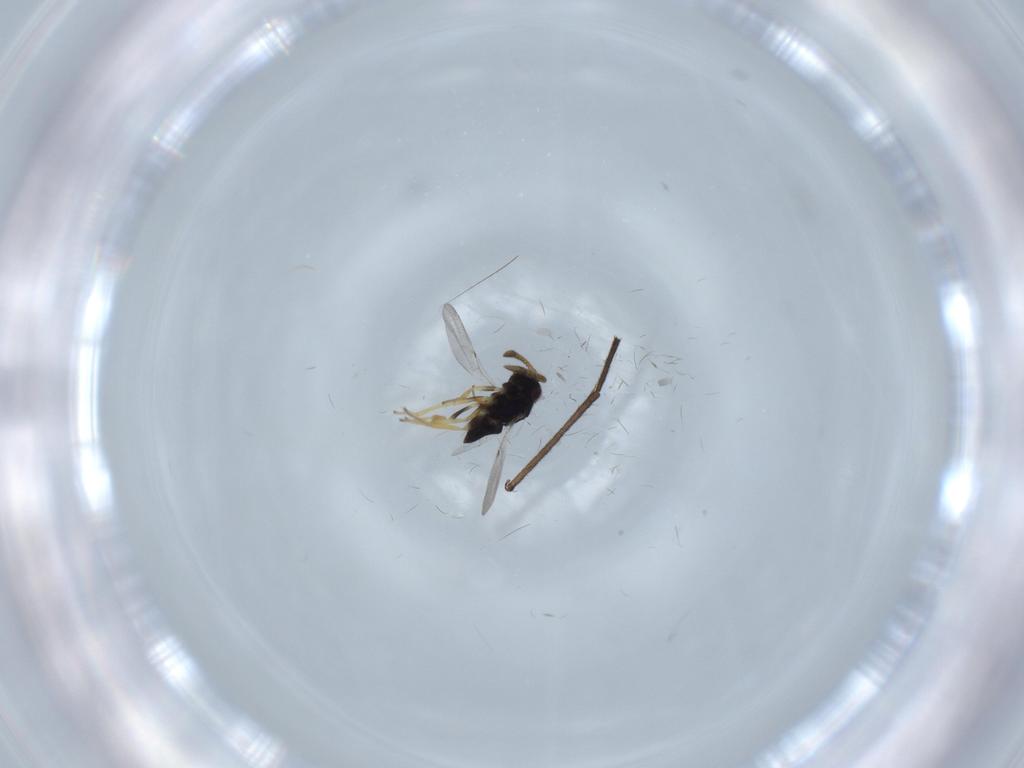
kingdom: Animalia
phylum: Arthropoda
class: Insecta
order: Hymenoptera
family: Encyrtidae
